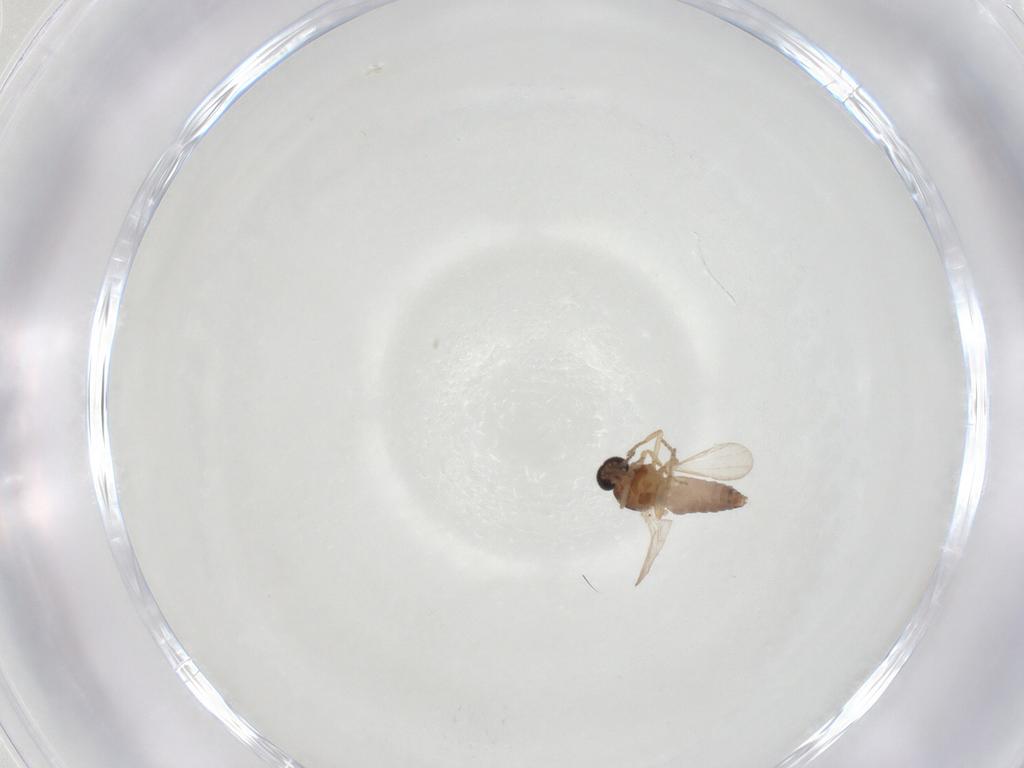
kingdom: Animalia
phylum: Arthropoda
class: Insecta
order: Diptera
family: Ceratopogonidae
